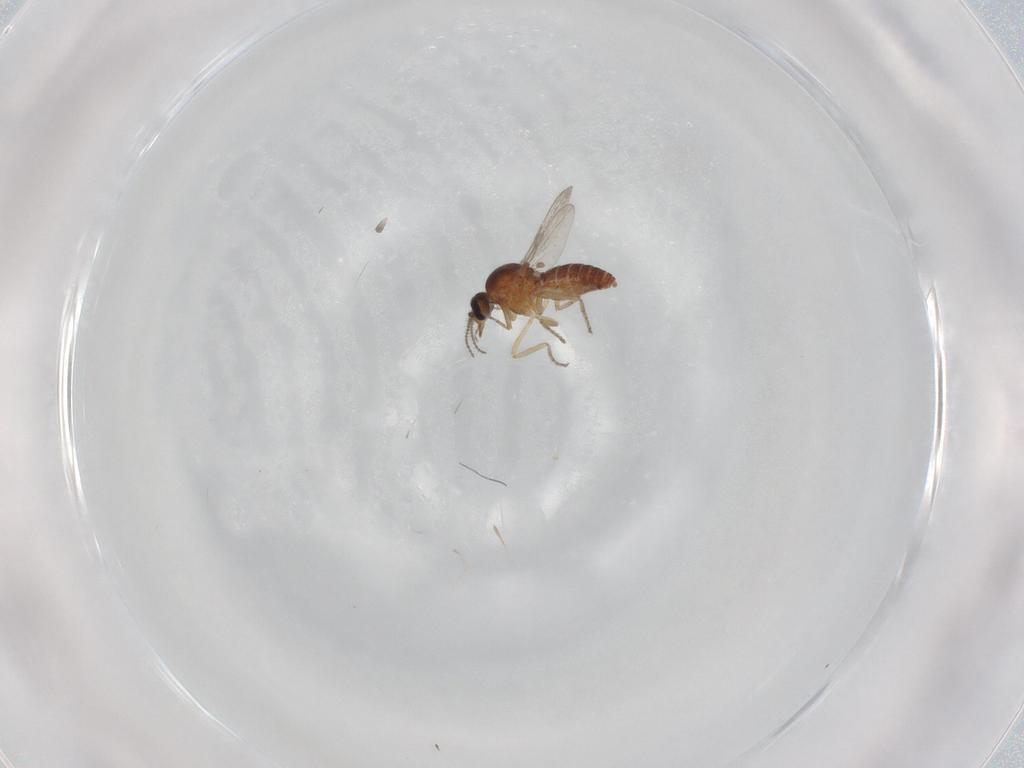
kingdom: Animalia
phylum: Arthropoda
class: Insecta
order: Diptera
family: Ceratopogonidae
